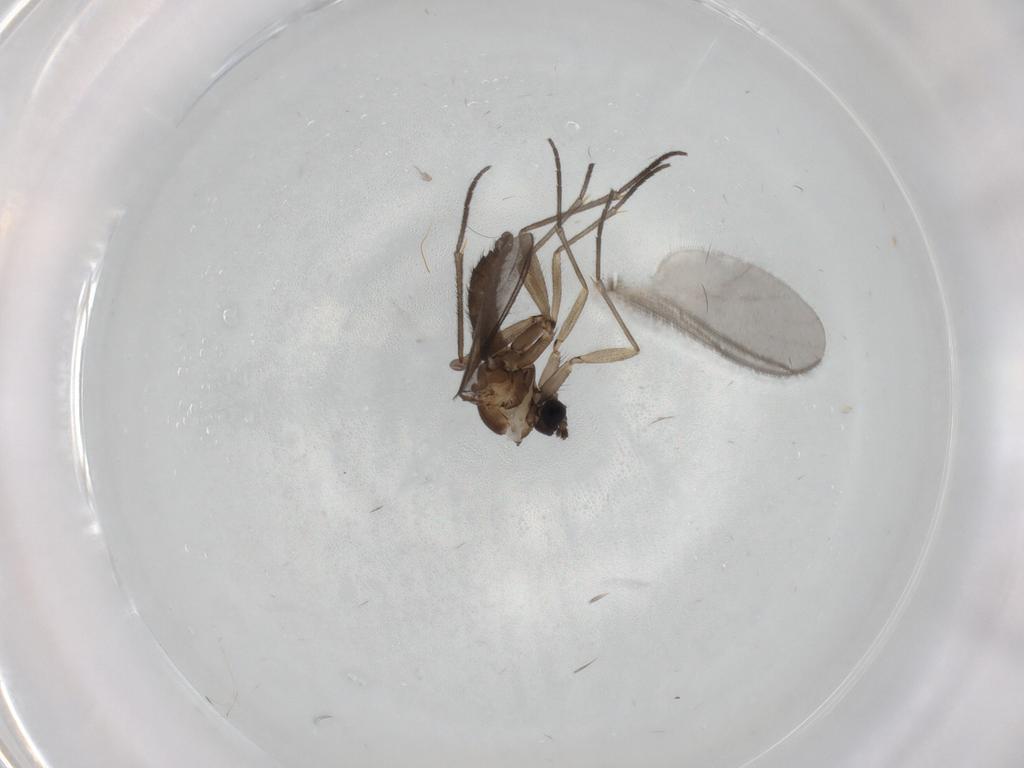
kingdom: Animalia
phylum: Arthropoda
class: Insecta
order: Diptera
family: Sciaridae
